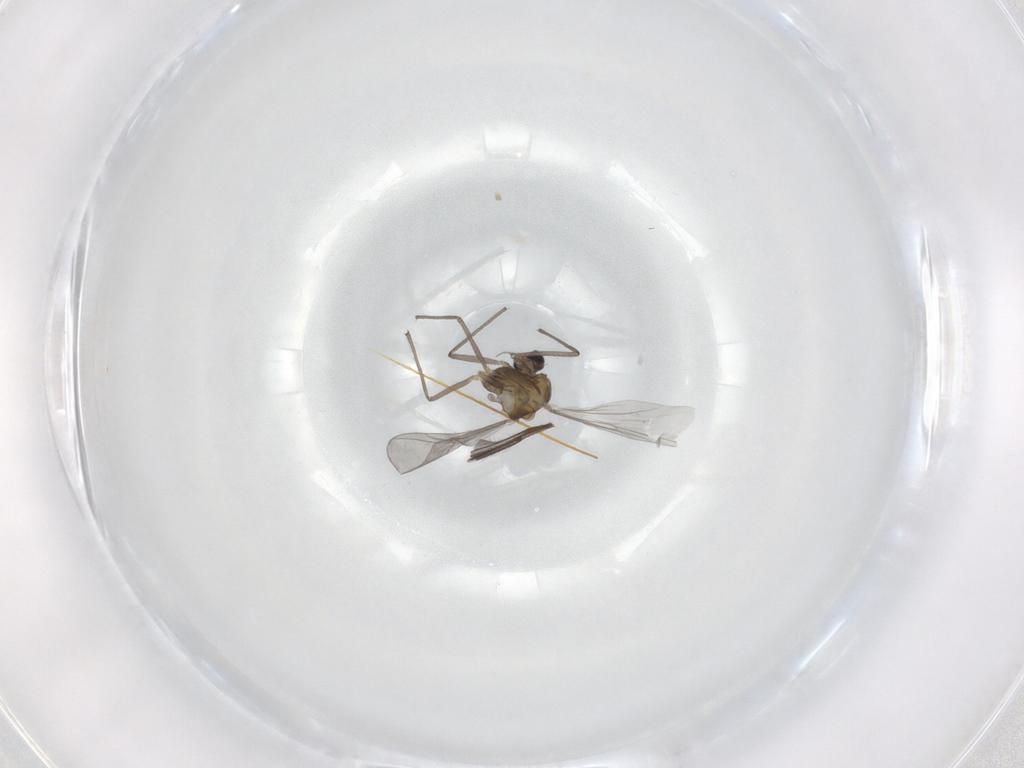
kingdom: Animalia
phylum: Arthropoda
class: Insecta
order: Diptera
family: Chironomidae
